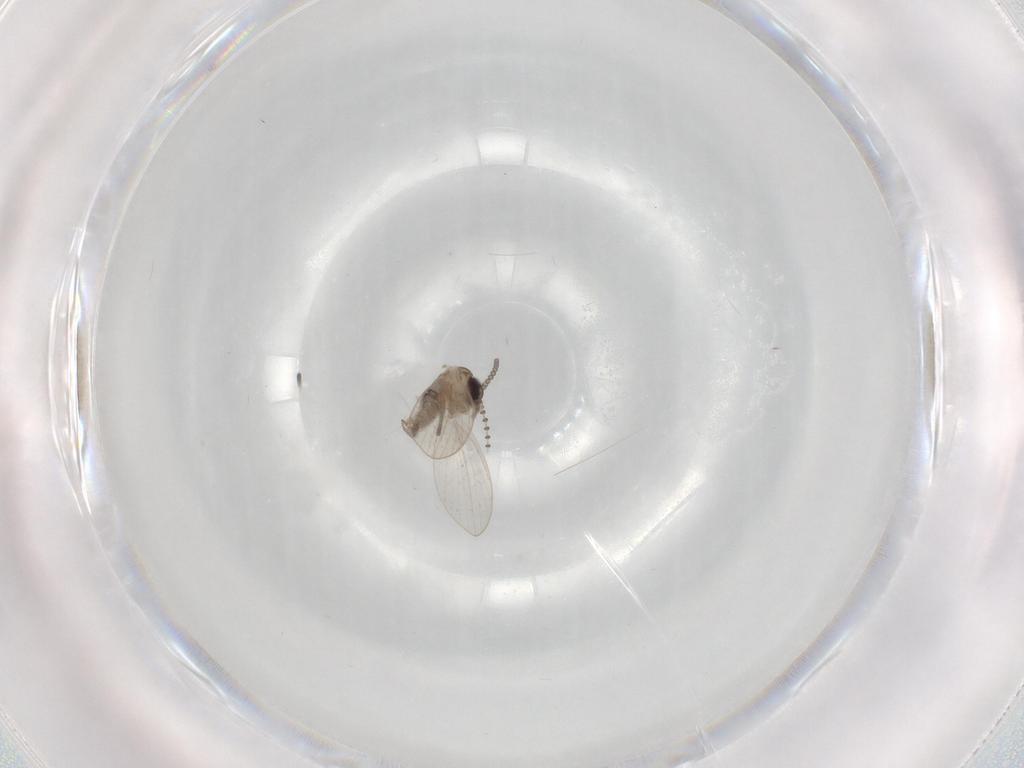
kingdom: Animalia
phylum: Arthropoda
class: Insecta
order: Diptera
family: Psychodidae
